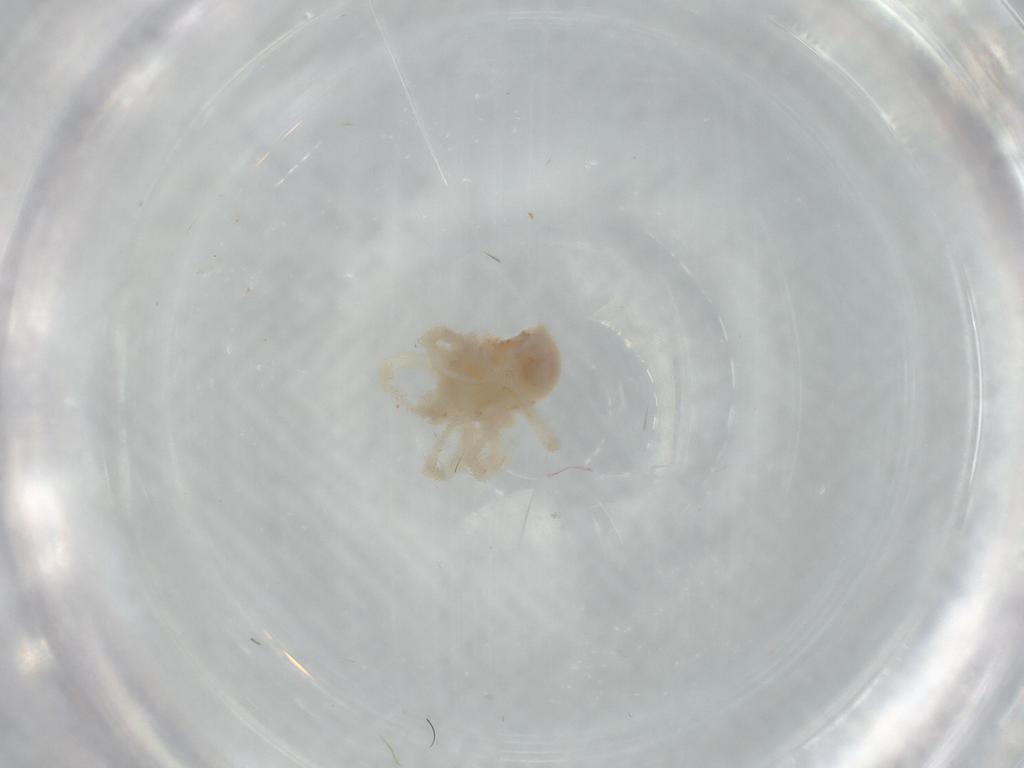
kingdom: Animalia
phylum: Arthropoda
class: Arachnida
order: Trombidiformes
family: Anystidae
